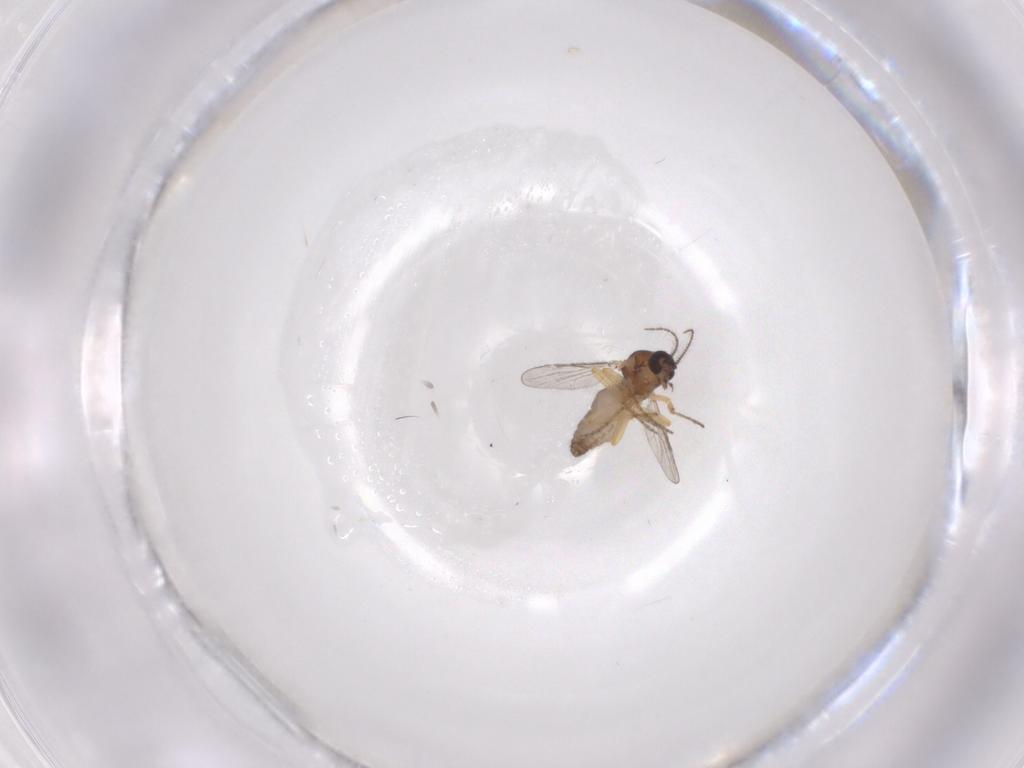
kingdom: Animalia
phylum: Arthropoda
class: Insecta
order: Diptera
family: Ceratopogonidae
